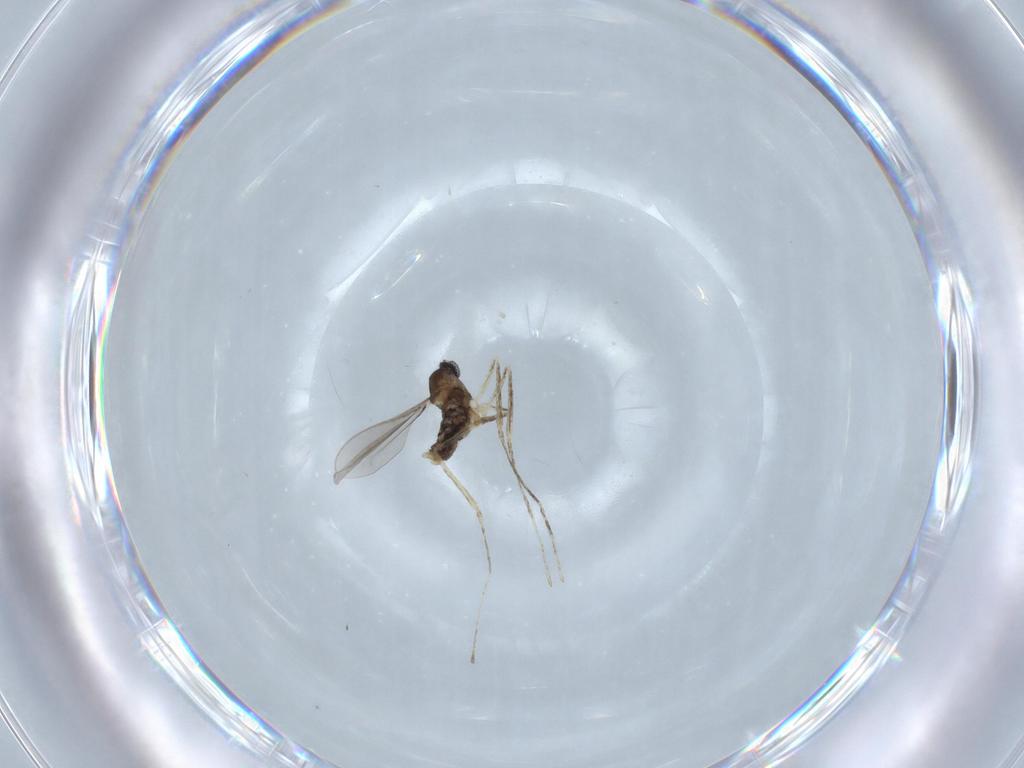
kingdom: Animalia
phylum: Arthropoda
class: Insecta
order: Diptera
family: Cecidomyiidae
